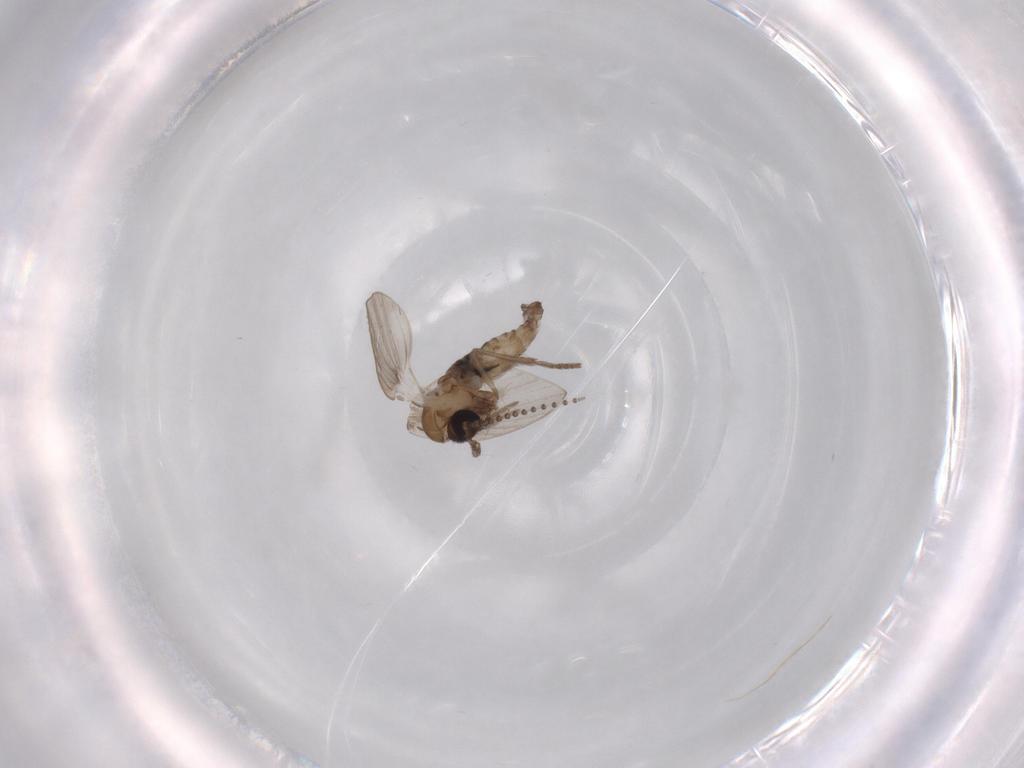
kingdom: Animalia
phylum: Arthropoda
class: Insecta
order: Diptera
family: Psychodidae
